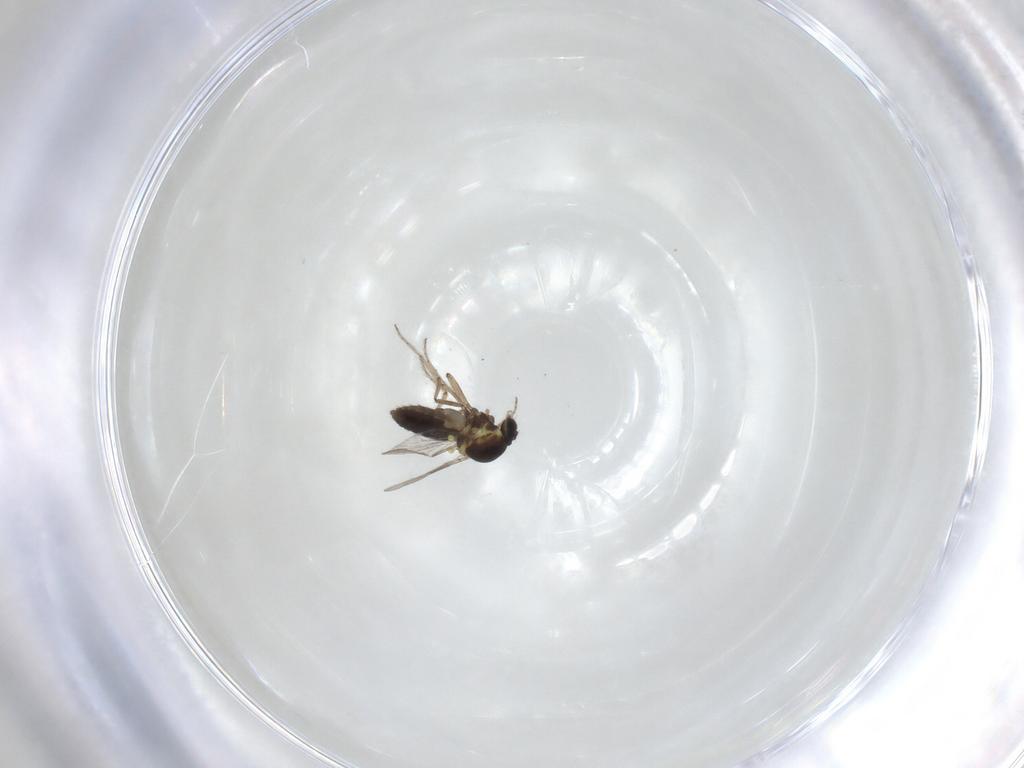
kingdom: Animalia
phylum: Arthropoda
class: Insecta
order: Diptera
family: Ceratopogonidae
